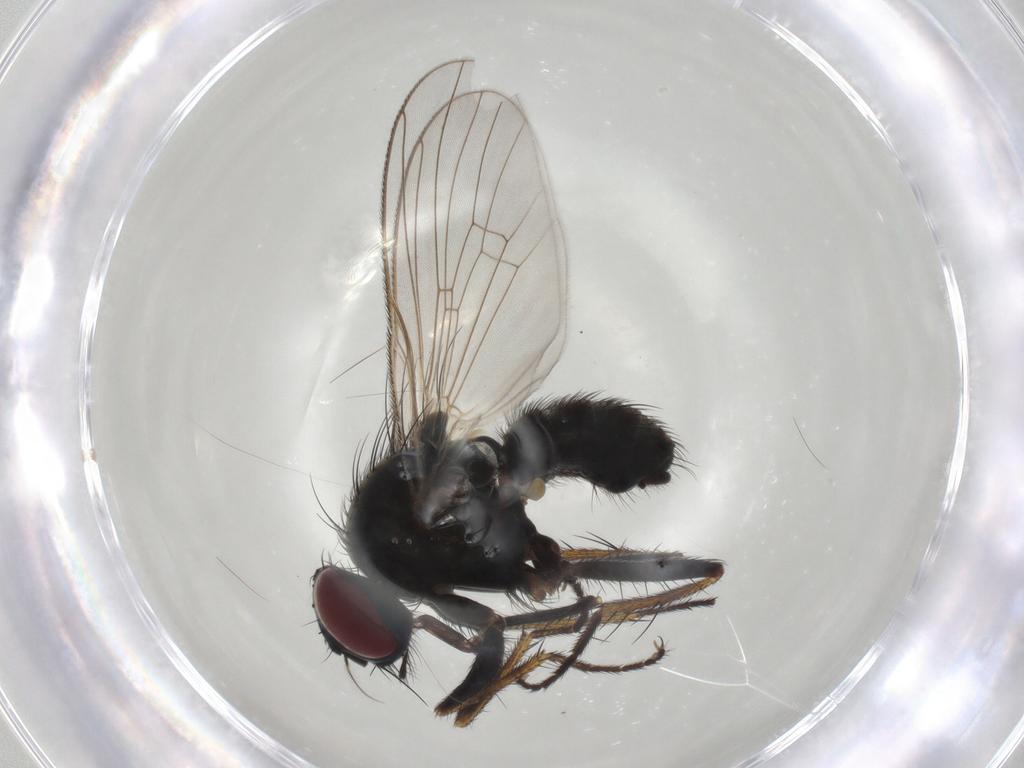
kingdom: Animalia
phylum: Arthropoda
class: Insecta
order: Diptera
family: Muscidae
